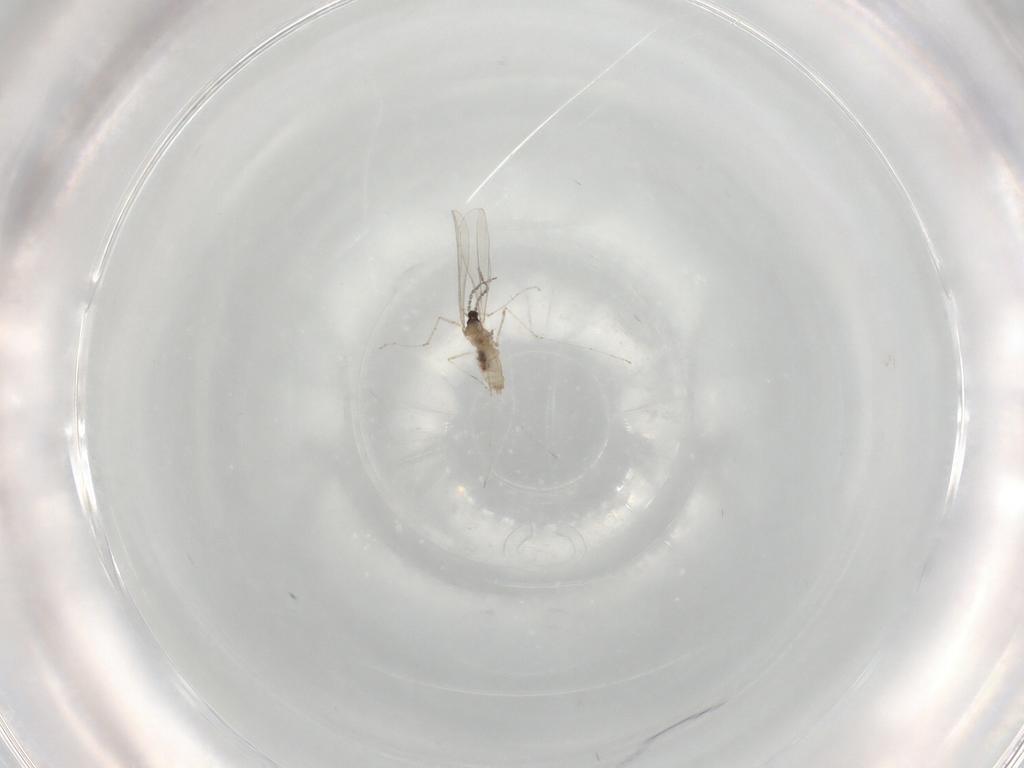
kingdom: Animalia
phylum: Arthropoda
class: Insecta
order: Diptera
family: Cecidomyiidae
